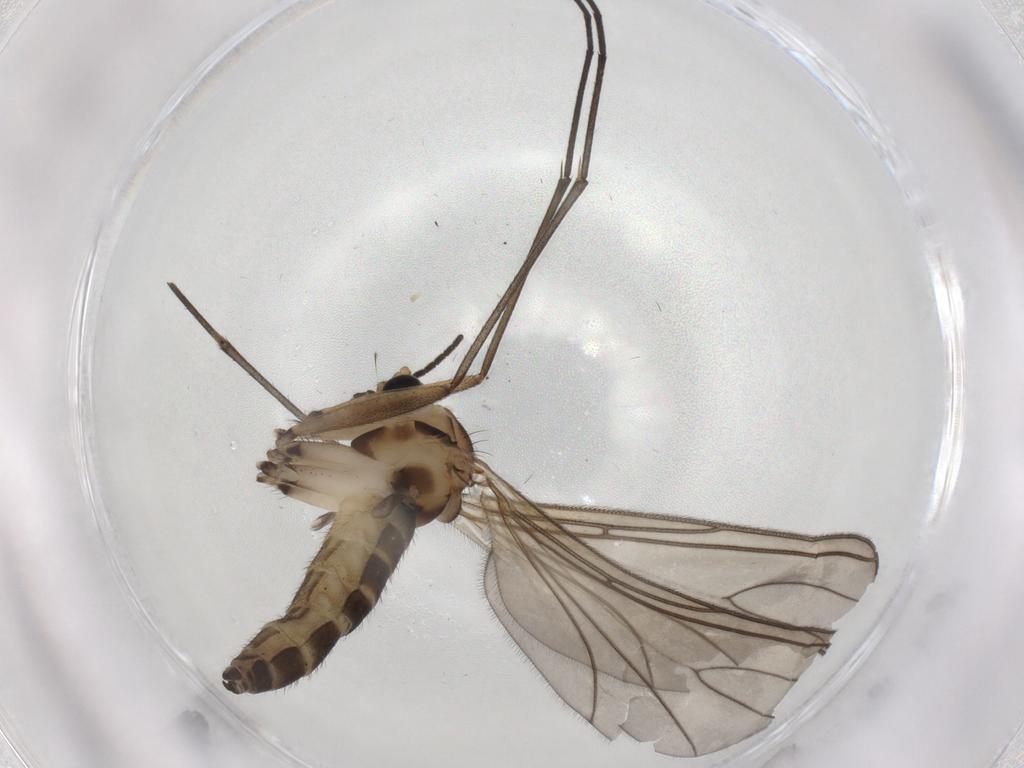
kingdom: Animalia
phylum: Arthropoda
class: Insecta
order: Diptera
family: Sciaridae
